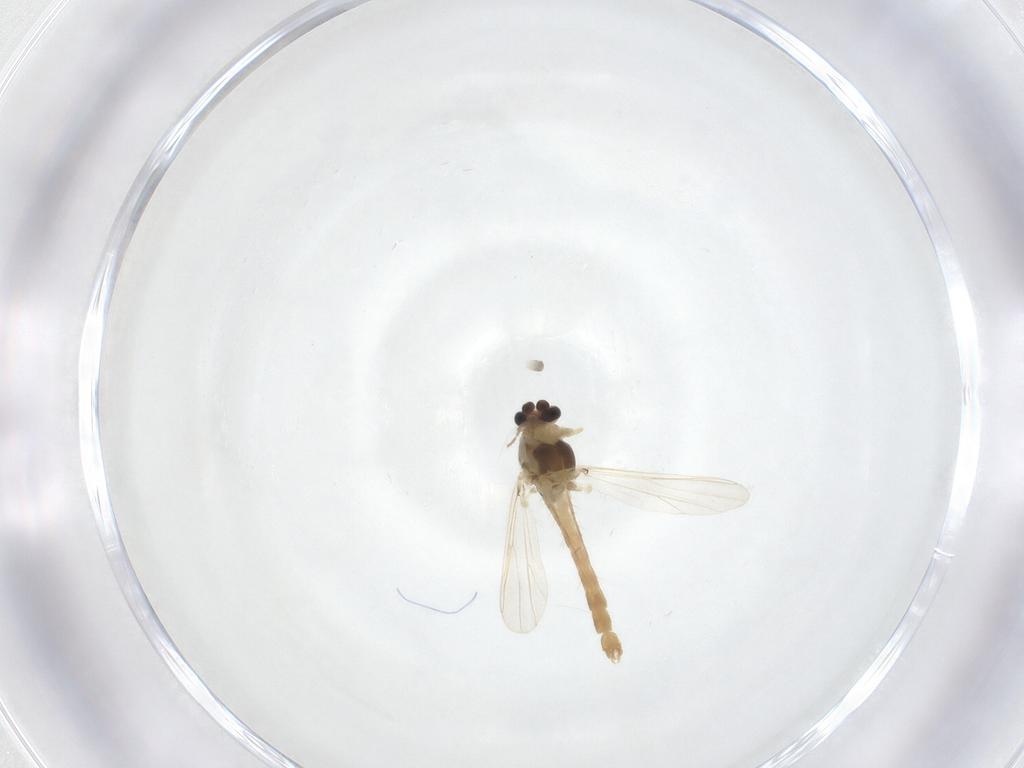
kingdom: Animalia
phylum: Arthropoda
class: Insecta
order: Diptera
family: Chironomidae
